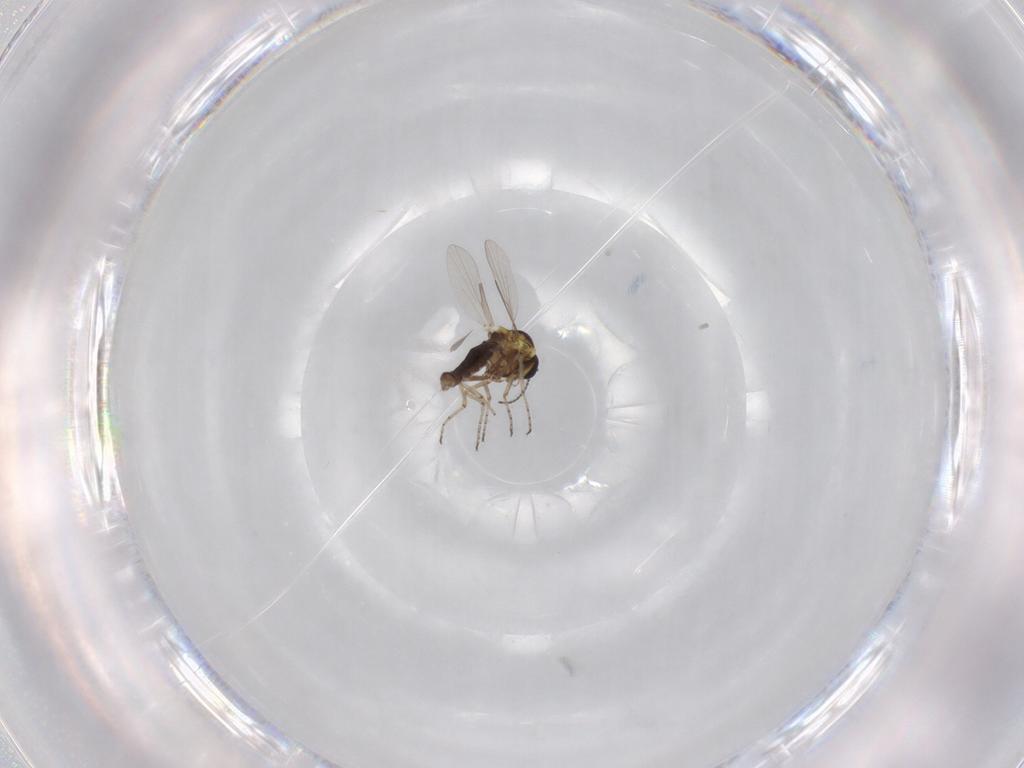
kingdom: Animalia
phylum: Arthropoda
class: Insecta
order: Diptera
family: Ceratopogonidae
